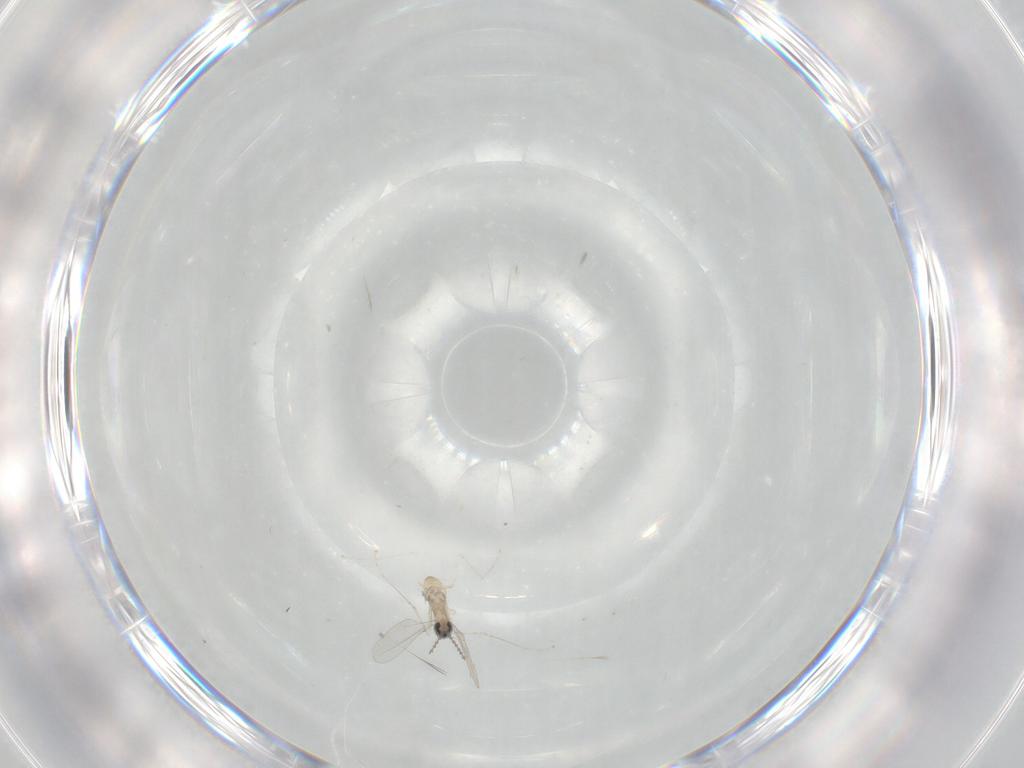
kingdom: Animalia
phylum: Arthropoda
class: Insecta
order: Diptera
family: Cecidomyiidae
